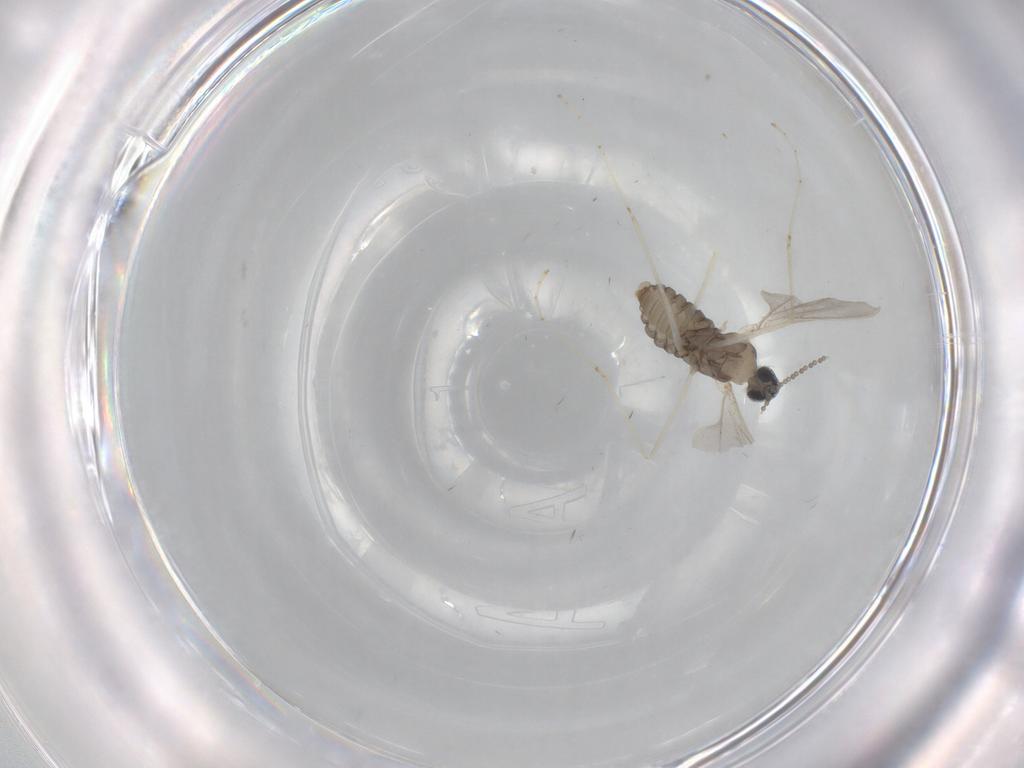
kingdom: Animalia
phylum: Arthropoda
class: Insecta
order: Diptera
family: Cecidomyiidae
